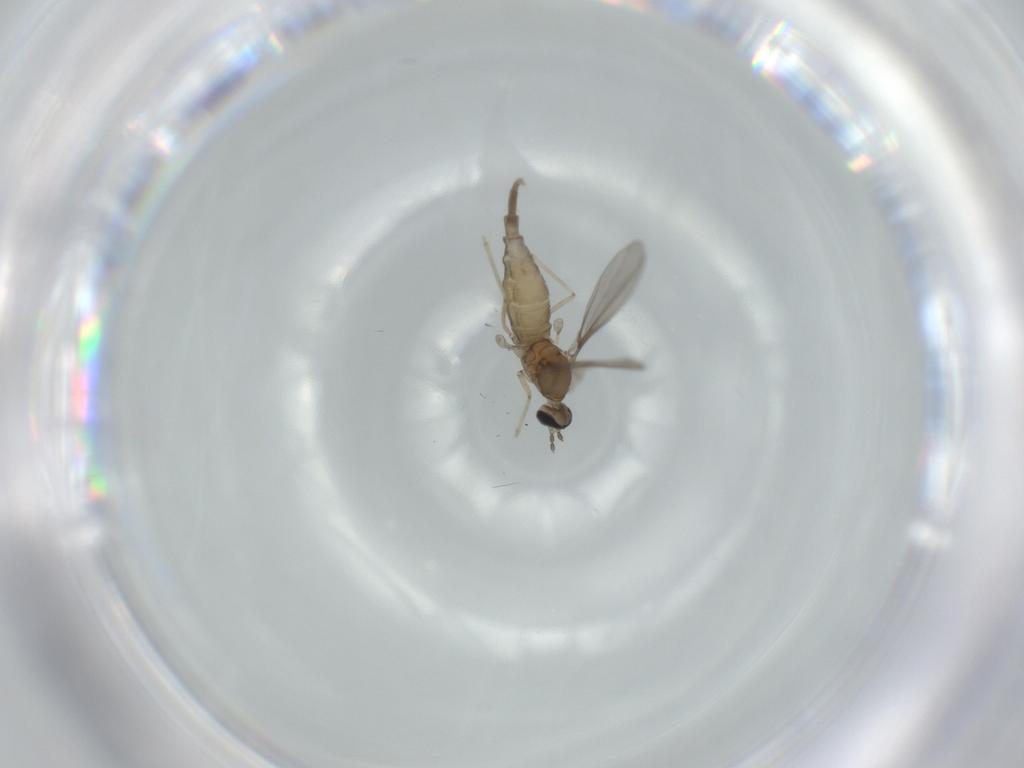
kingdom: Animalia
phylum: Arthropoda
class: Insecta
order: Diptera
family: Cecidomyiidae
